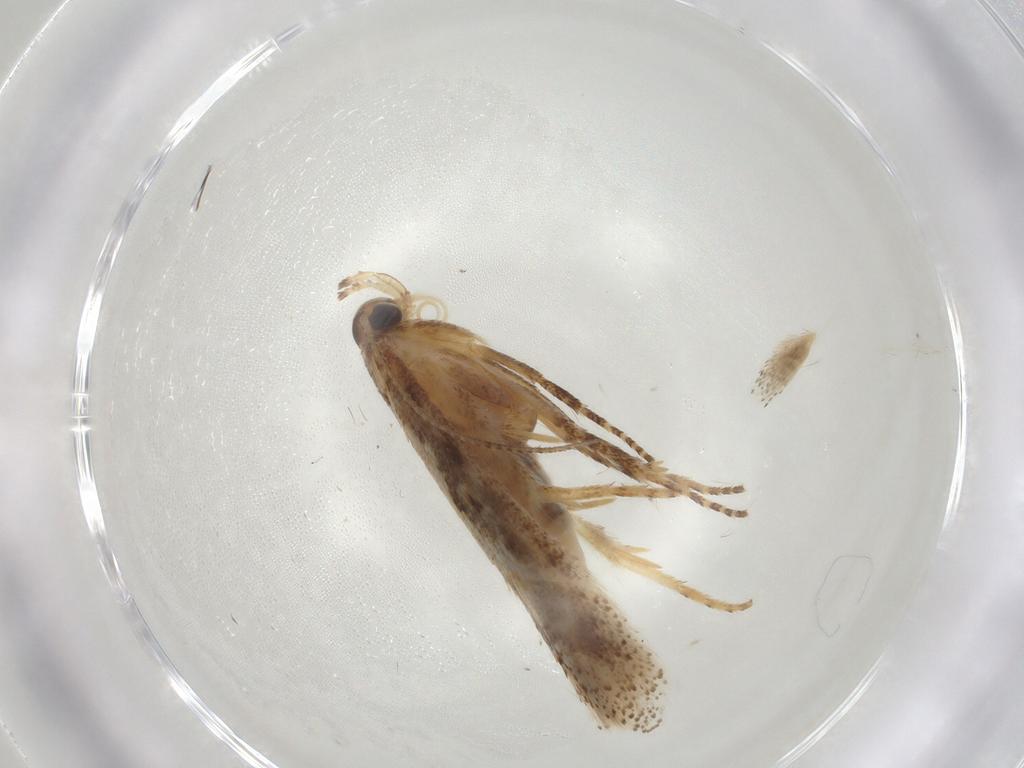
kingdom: Animalia
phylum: Arthropoda
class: Insecta
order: Lepidoptera
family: Gelechiidae
